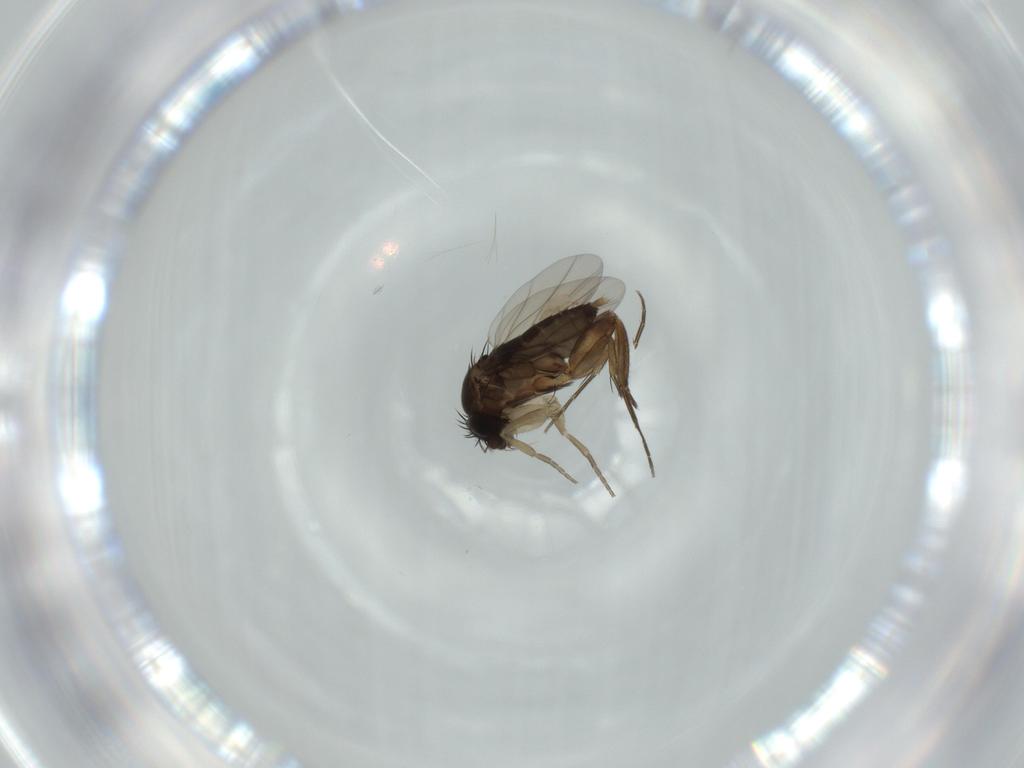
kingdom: Animalia
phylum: Arthropoda
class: Insecta
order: Diptera
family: Phoridae
